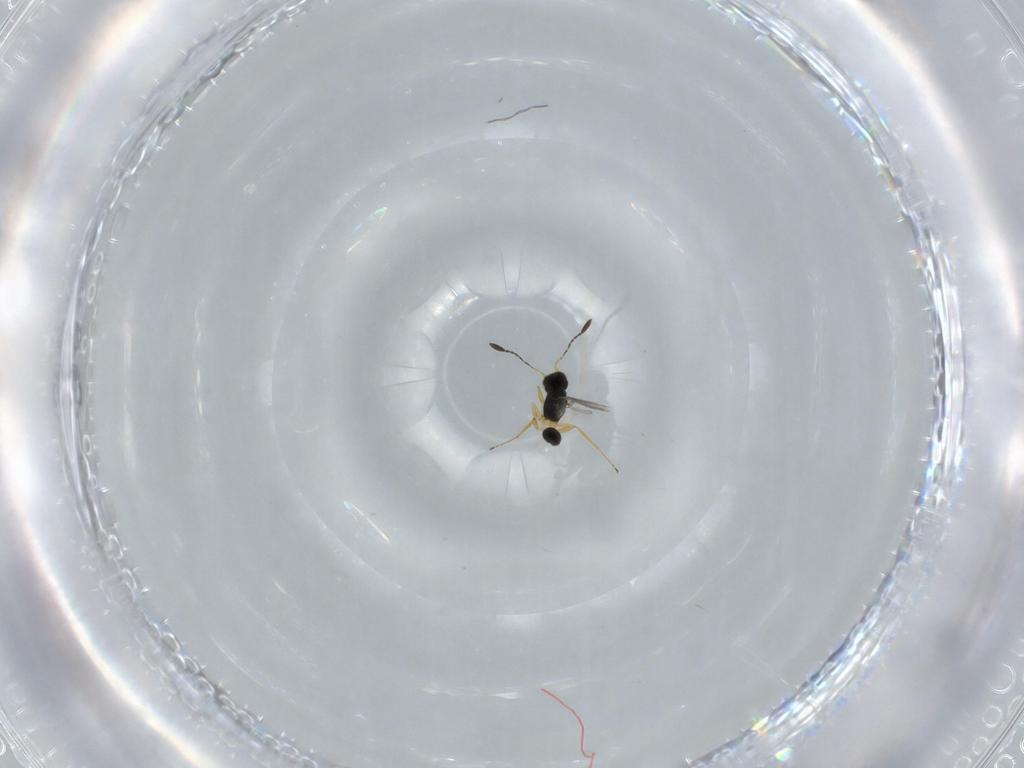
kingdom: Animalia
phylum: Arthropoda
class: Insecta
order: Hymenoptera
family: Mymaridae
